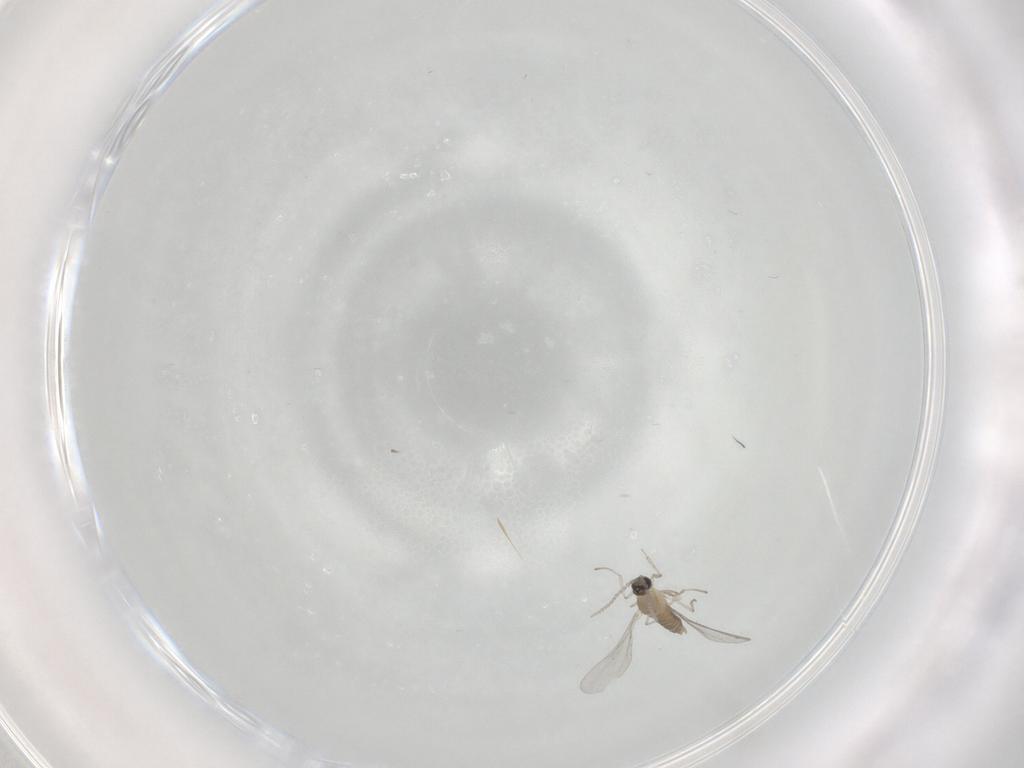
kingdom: Animalia
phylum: Arthropoda
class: Insecta
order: Diptera
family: Cecidomyiidae
